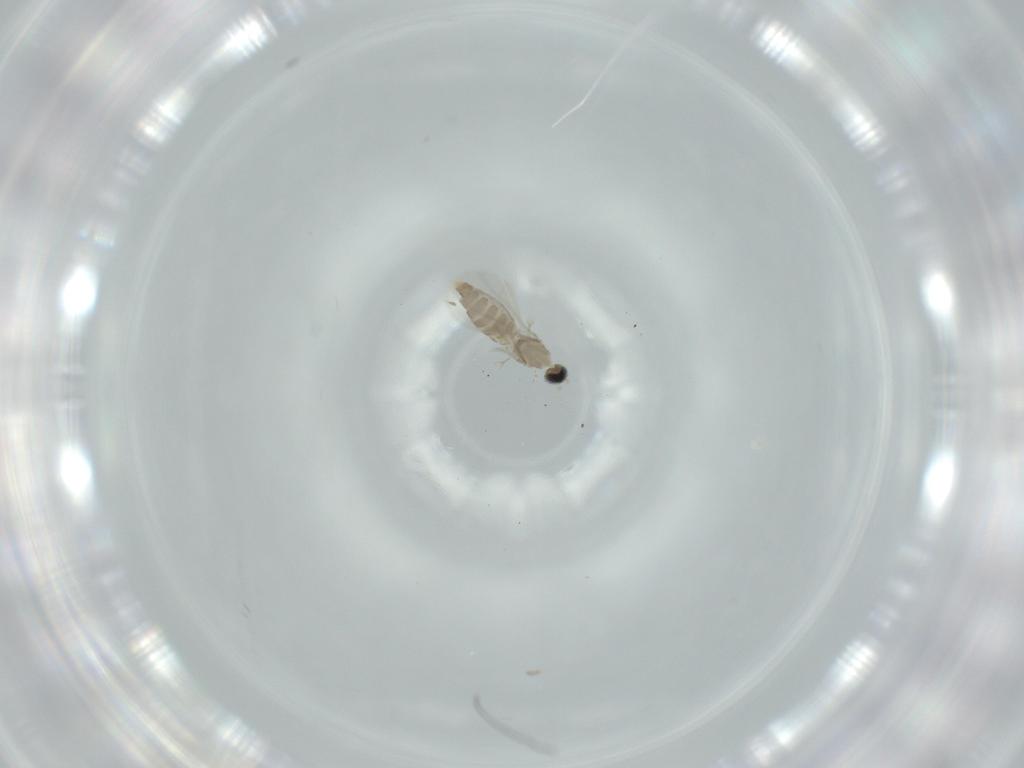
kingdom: Animalia
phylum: Arthropoda
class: Insecta
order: Diptera
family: Cecidomyiidae
